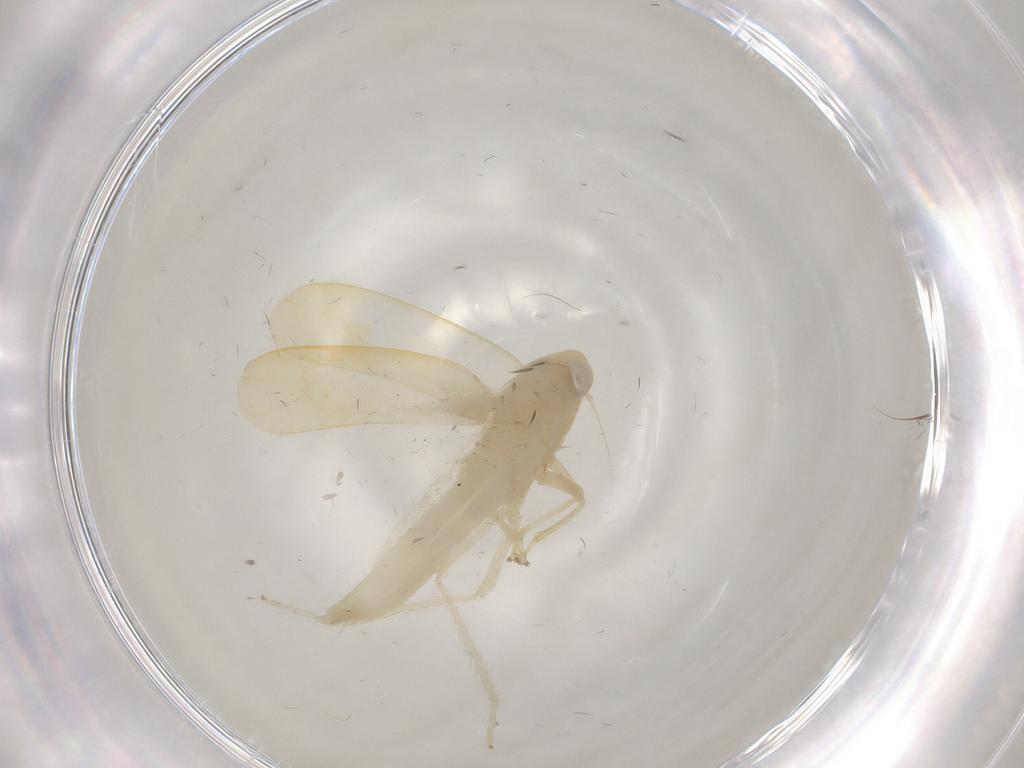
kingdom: Animalia
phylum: Arthropoda
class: Insecta
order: Hemiptera
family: Cicadellidae
